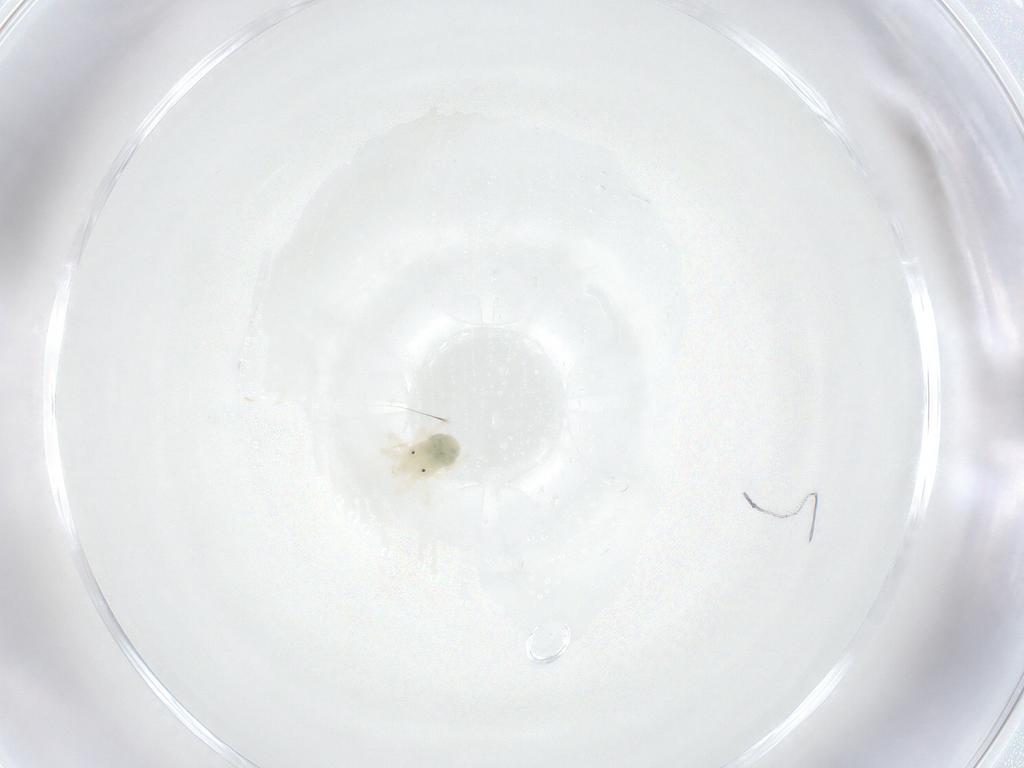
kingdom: Animalia
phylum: Arthropoda
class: Arachnida
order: Trombidiformes
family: Anystidae
